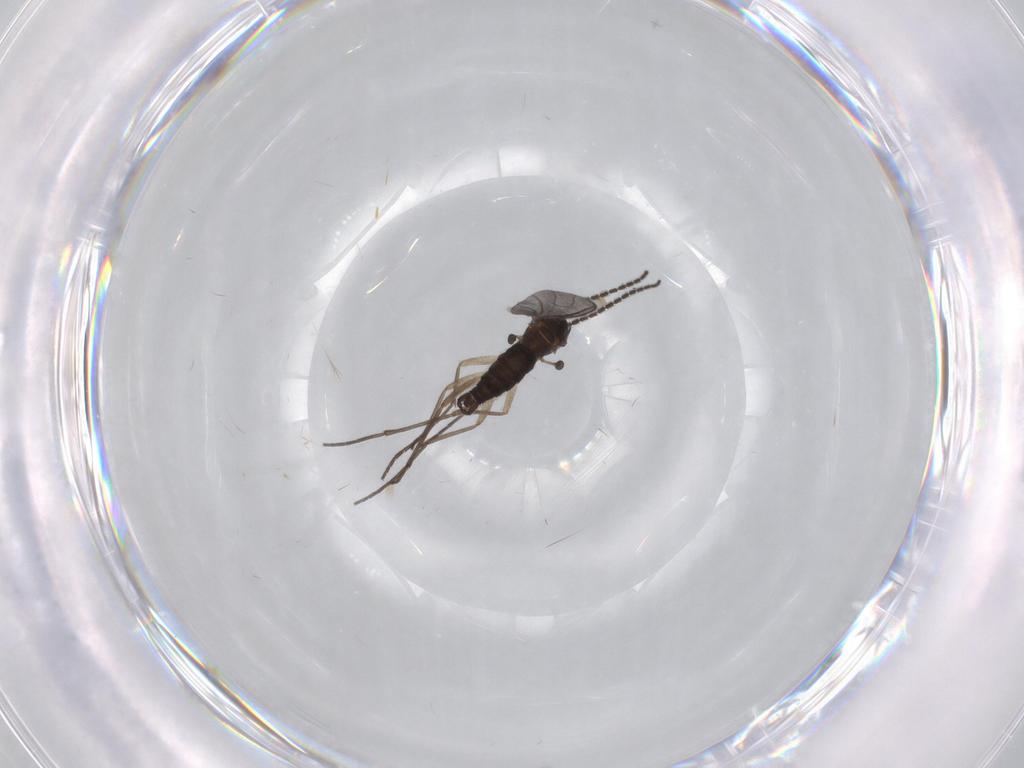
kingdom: Animalia
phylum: Arthropoda
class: Insecta
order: Diptera
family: Sciaridae
